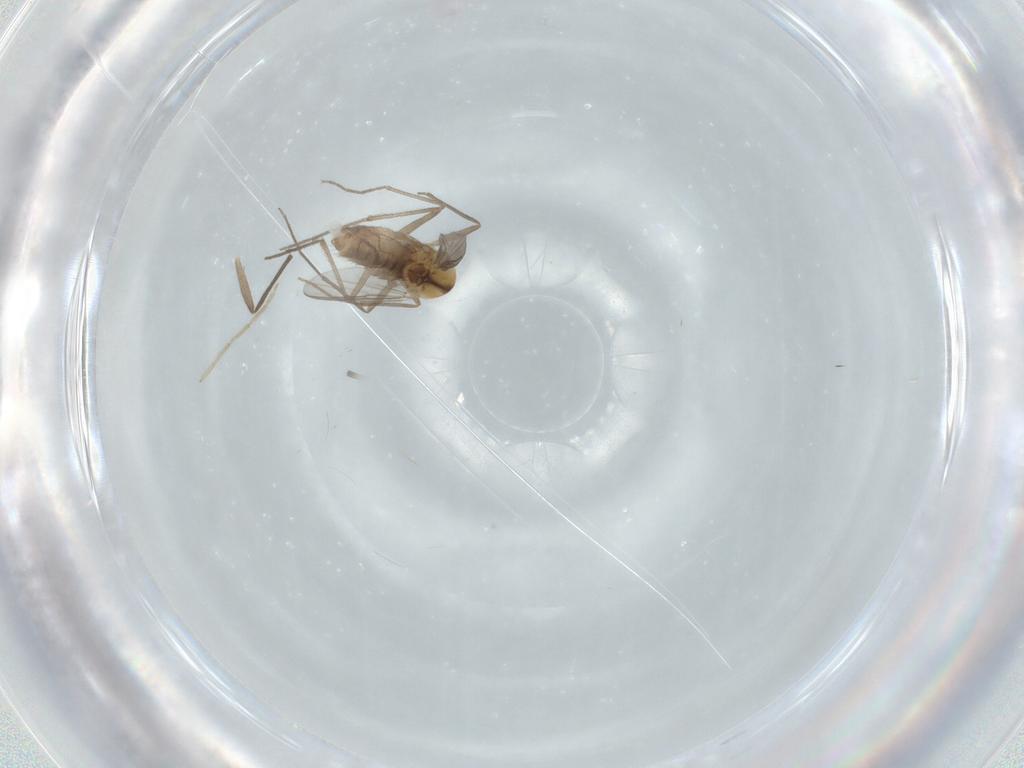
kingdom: Animalia
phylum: Arthropoda
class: Insecta
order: Diptera
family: Chironomidae
